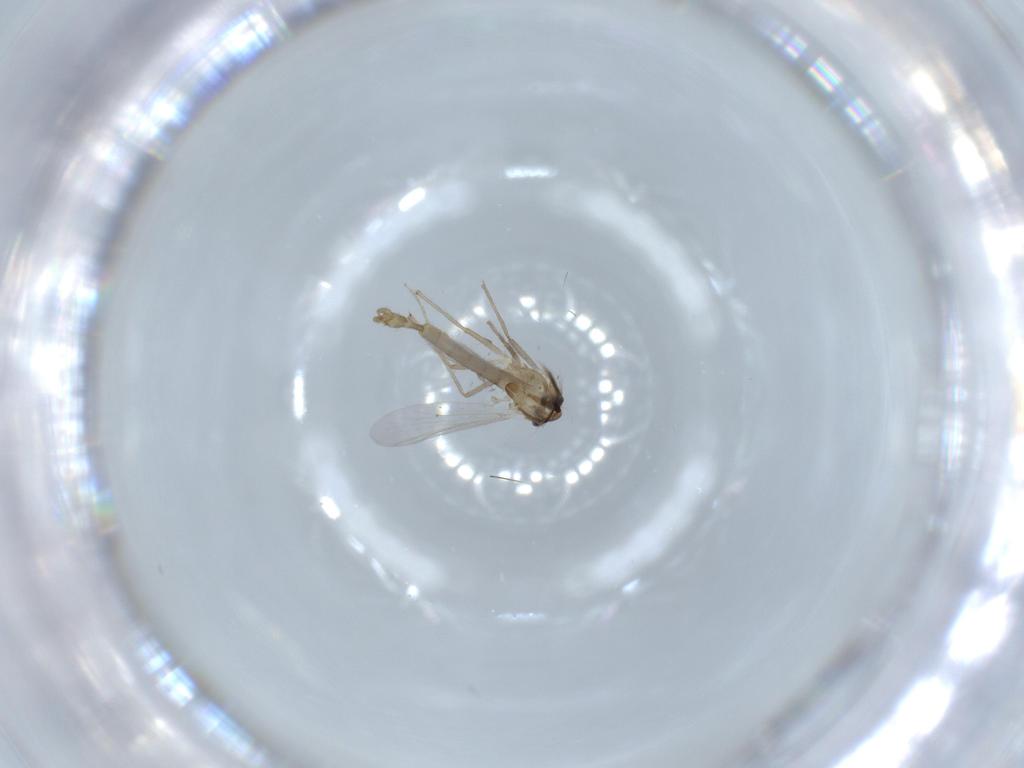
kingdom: Animalia
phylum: Arthropoda
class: Insecta
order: Diptera
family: Chironomidae
